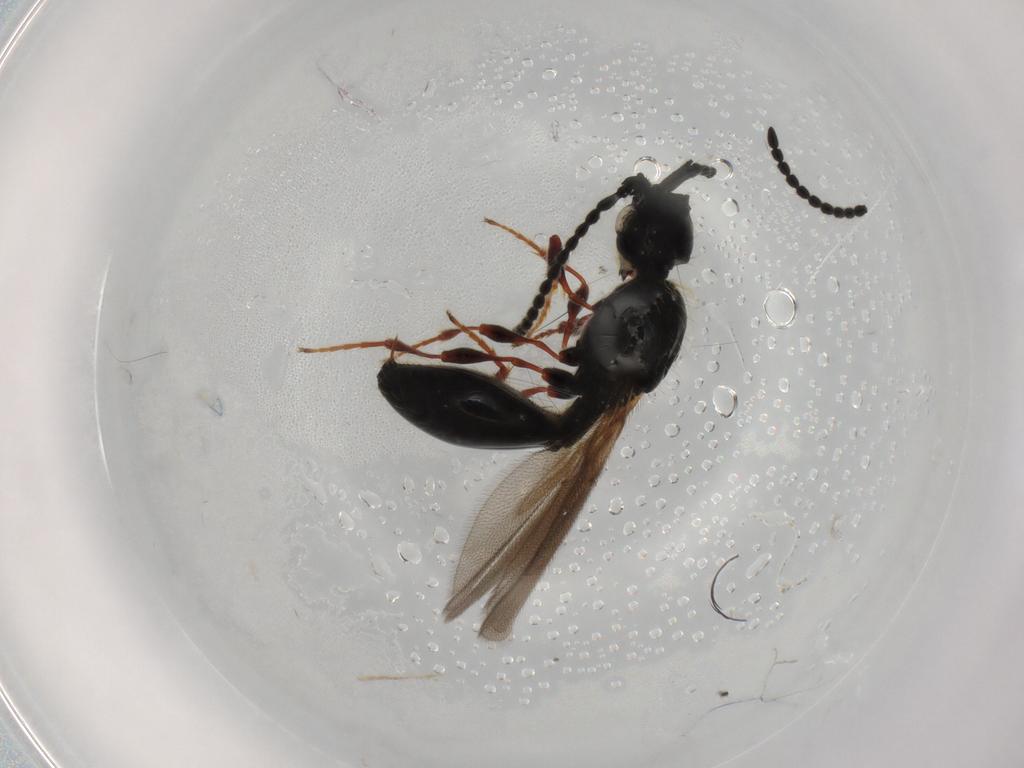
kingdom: Animalia
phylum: Arthropoda
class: Insecta
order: Hymenoptera
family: Diapriidae
